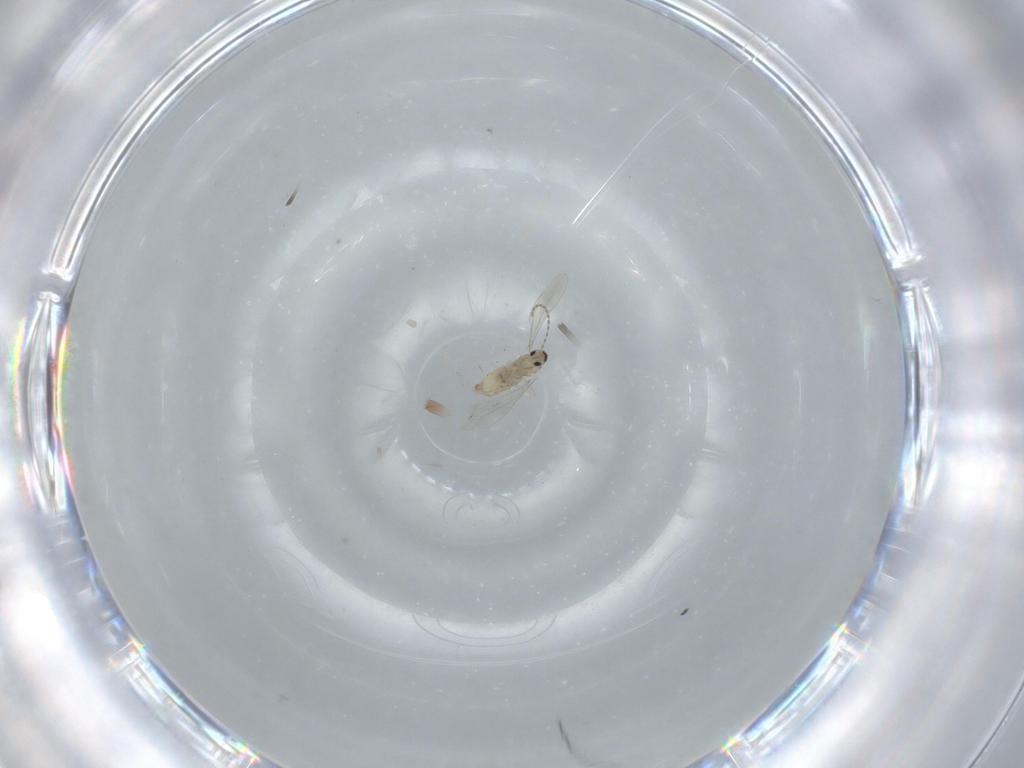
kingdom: Animalia
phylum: Arthropoda
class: Insecta
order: Diptera
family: Cecidomyiidae
